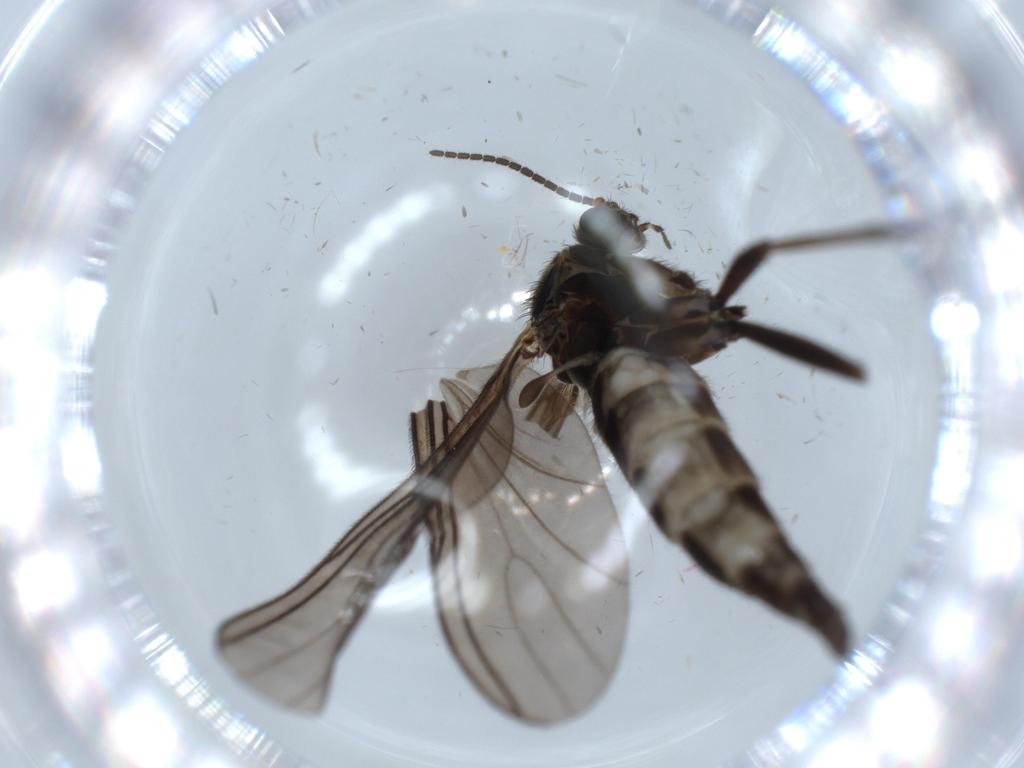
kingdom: Animalia
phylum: Arthropoda
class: Insecta
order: Diptera
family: Sciaridae
